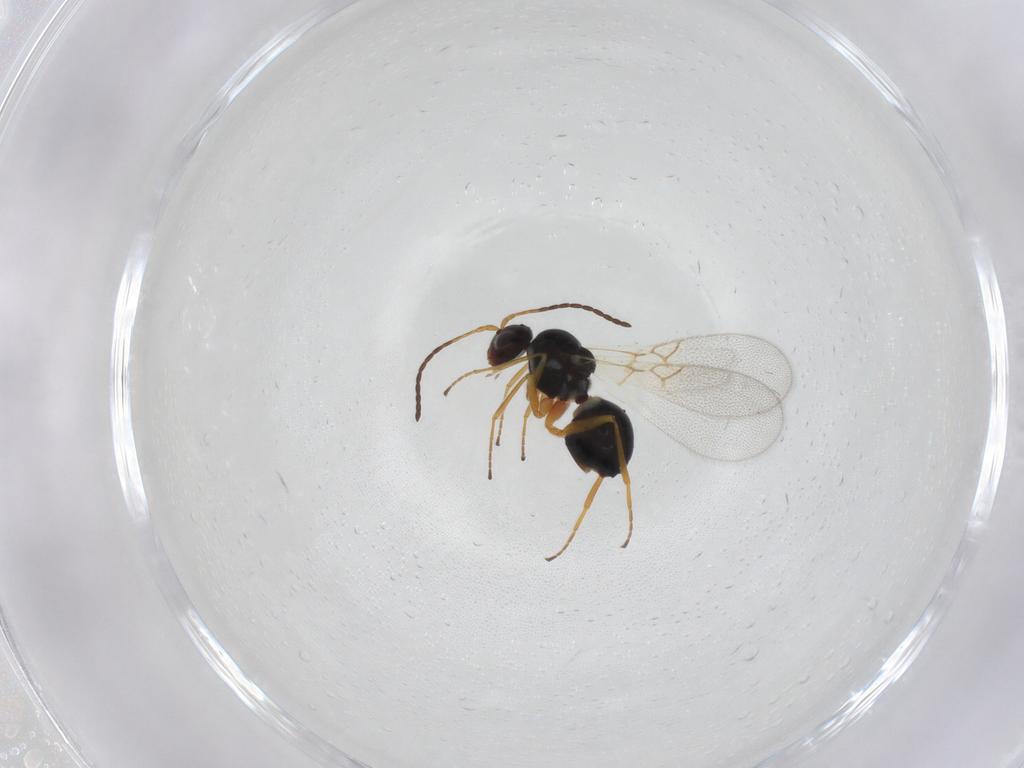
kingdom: Animalia
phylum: Arthropoda
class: Insecta
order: Hymenoptera
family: Figitidae
